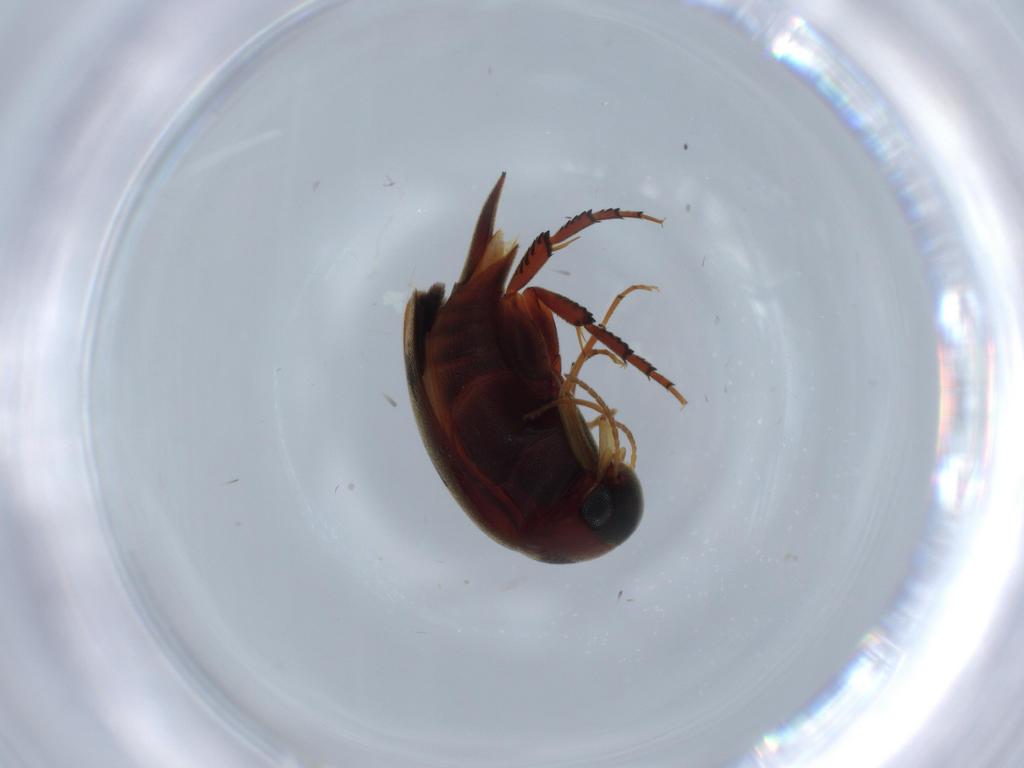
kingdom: Animalia
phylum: Arthropoda
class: Insecta
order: Coleoptera
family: Mordellidae
